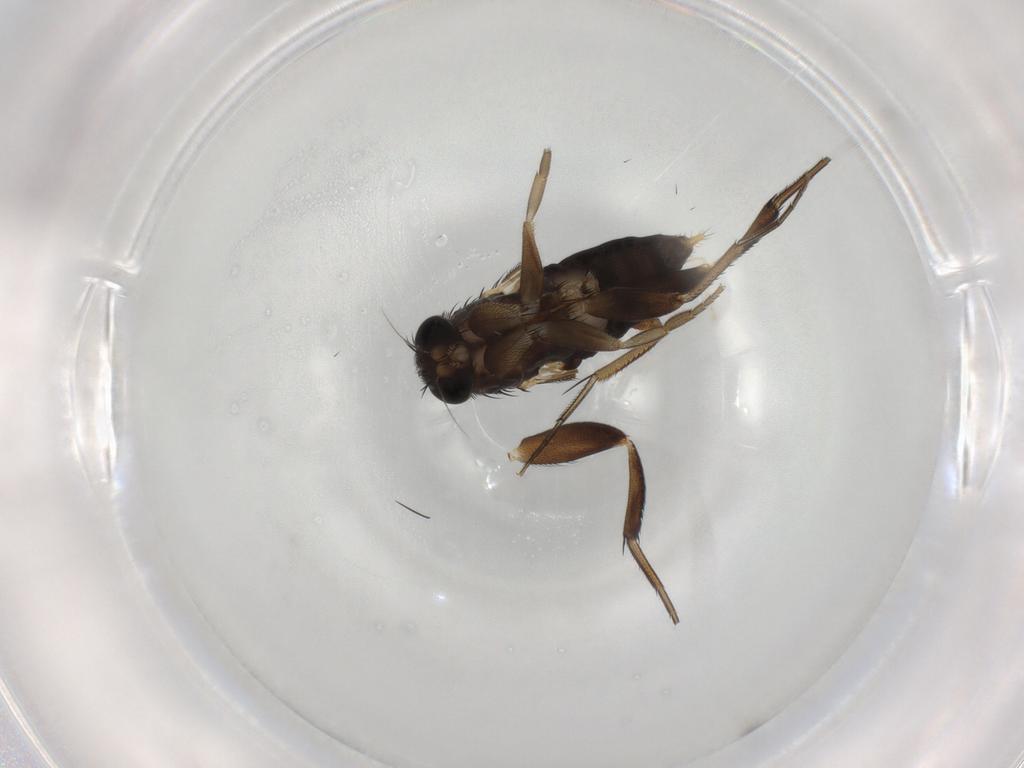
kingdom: Animalia
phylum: Arthropoda
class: Insecta
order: Diptera
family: Phoridae
